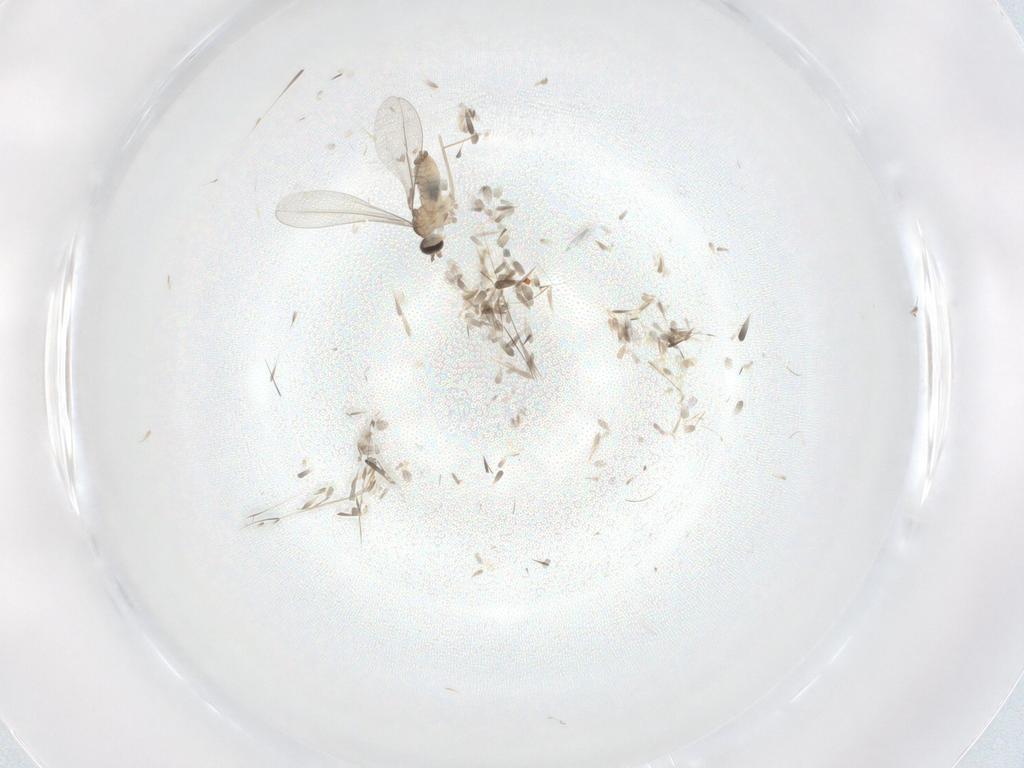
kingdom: Animalia
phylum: Arthropoda
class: Insecta
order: Diptera
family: Cecidomyiidae
